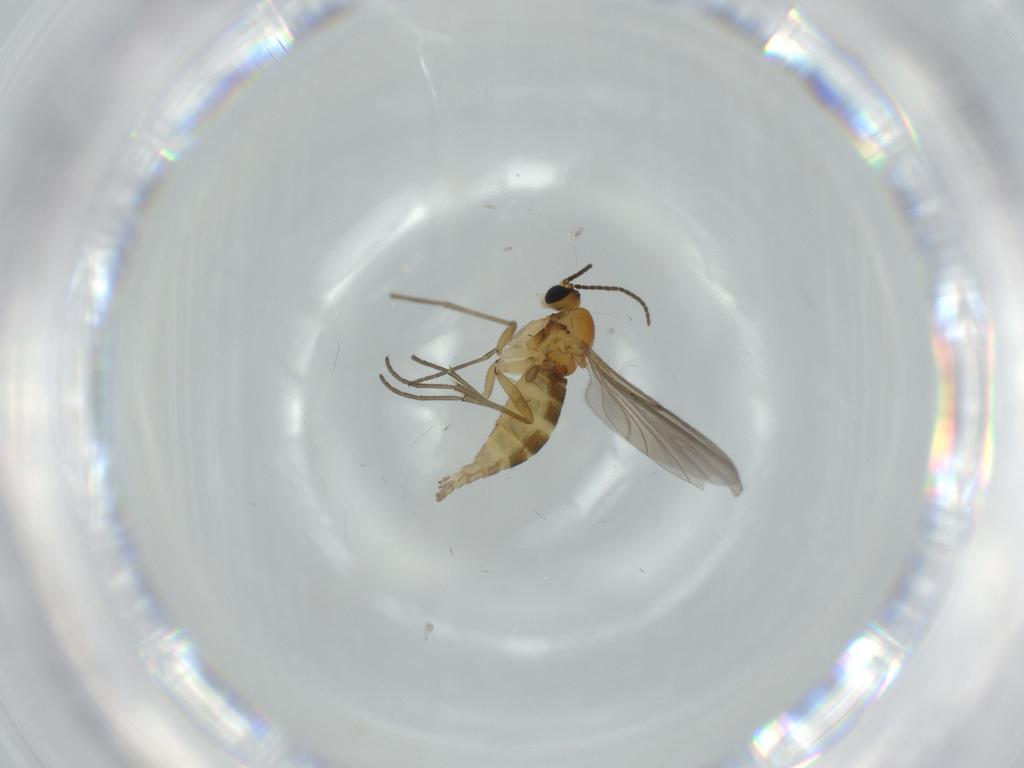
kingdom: Animalia
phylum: Arthropoda
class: Insecta
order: Diptera
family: Sciaridae
